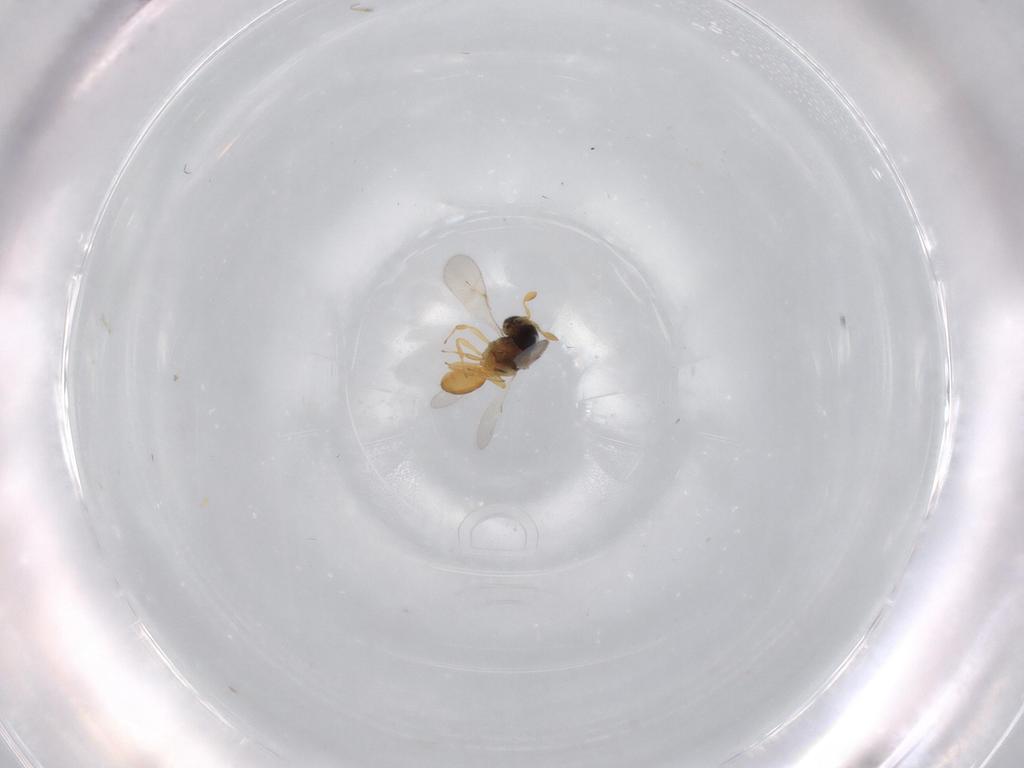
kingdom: Animalia
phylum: Arthropoda
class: Insecta
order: Hymenoptera
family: Scelionidae
